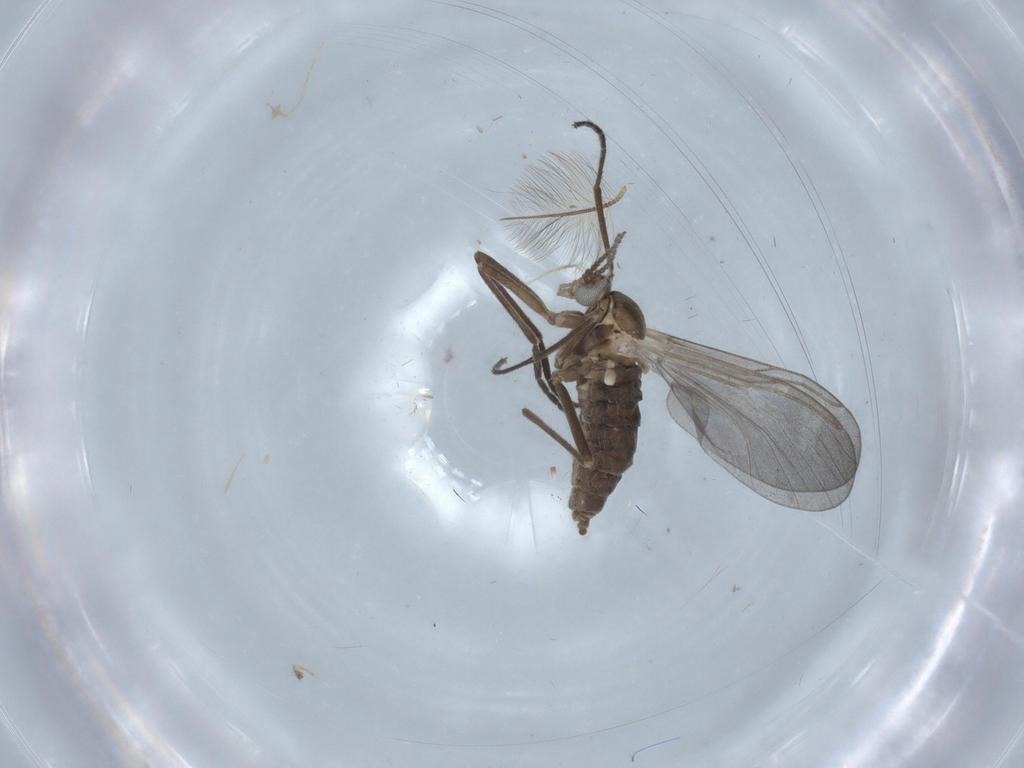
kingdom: Animalia
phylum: Arthropoda
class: Insecta
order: Diptera
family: Cecidomyiidae
